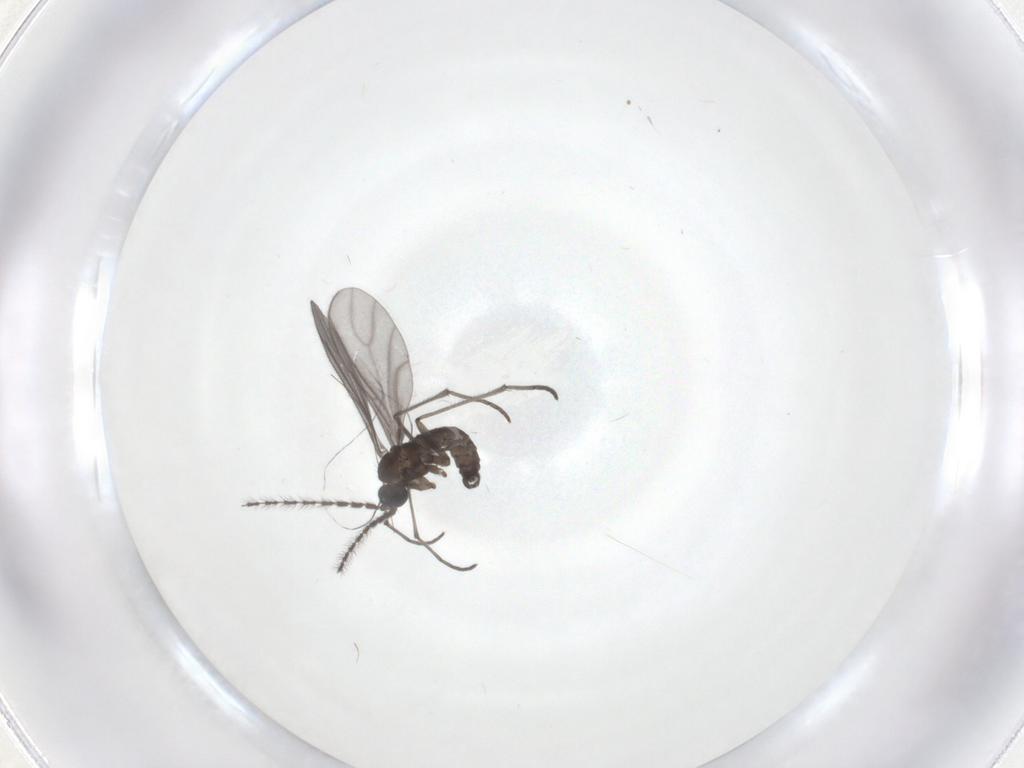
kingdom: Animalia
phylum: Arthropoda
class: Insecta
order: Diptera
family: Sciaridae
